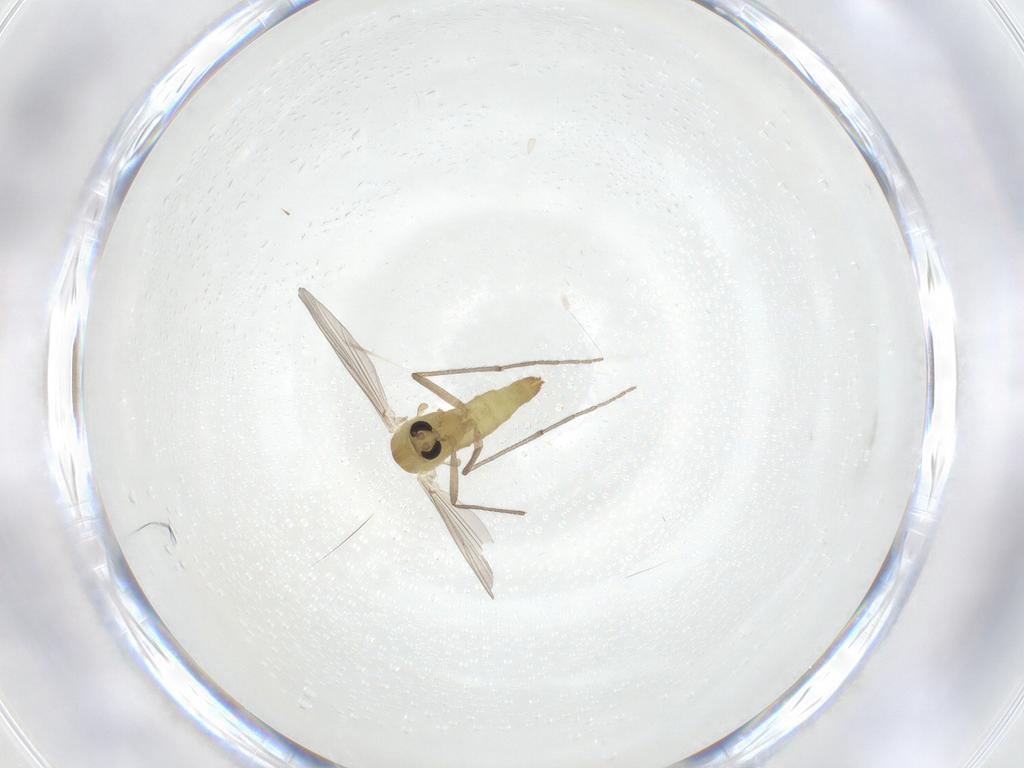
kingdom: Animalia
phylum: Arthropoda
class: Insecta
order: Diptera
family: Chironomidae
